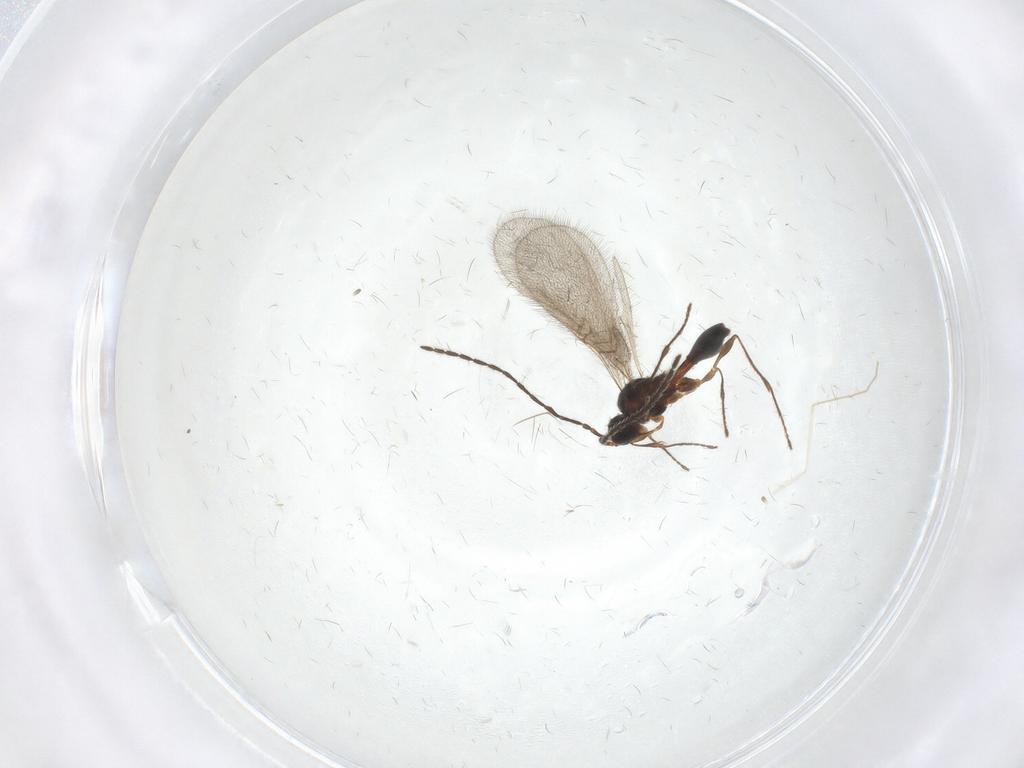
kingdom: Animalia
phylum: Arthropoda
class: Insecta
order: Hymenoptera
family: Diapriidae
